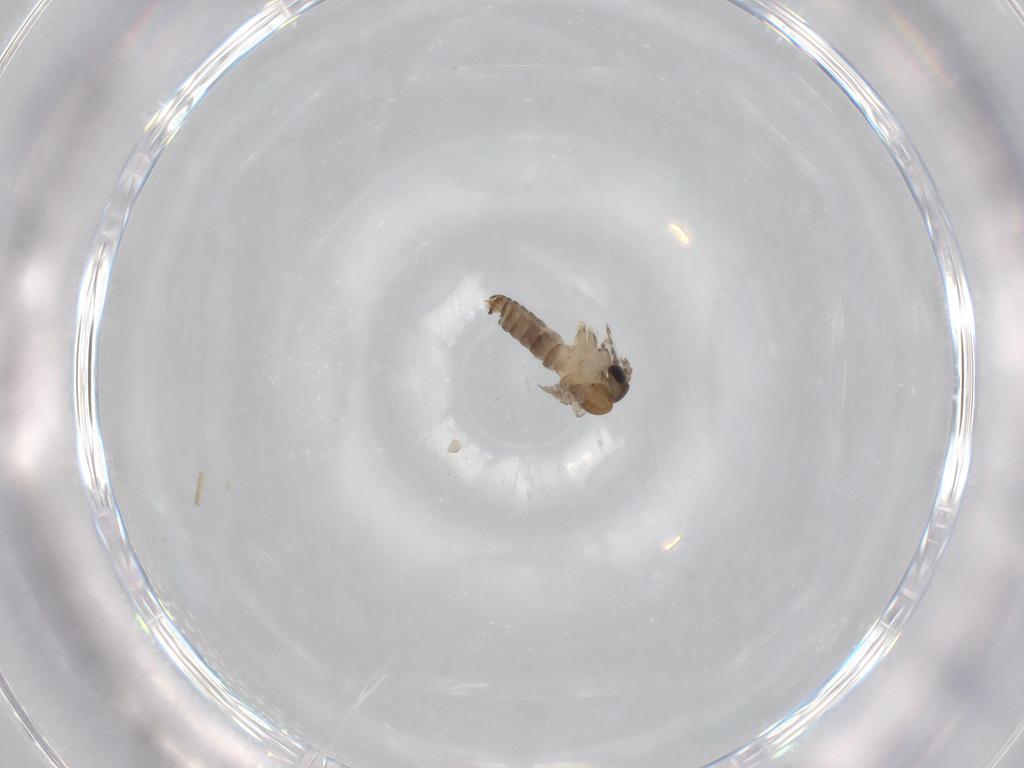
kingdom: Animalia
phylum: Arthropoda
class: Insecta
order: Diptera
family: Psychodidae
